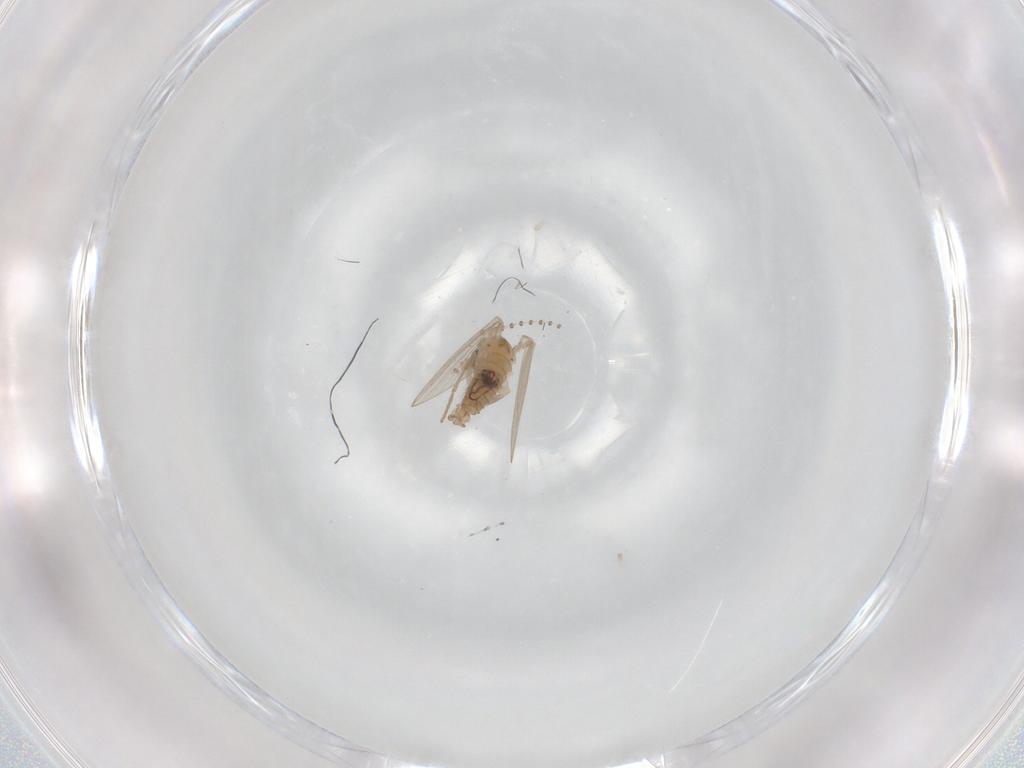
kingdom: Animalia
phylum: Arthropoda
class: Insecta
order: Diptera
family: Psychodidae
